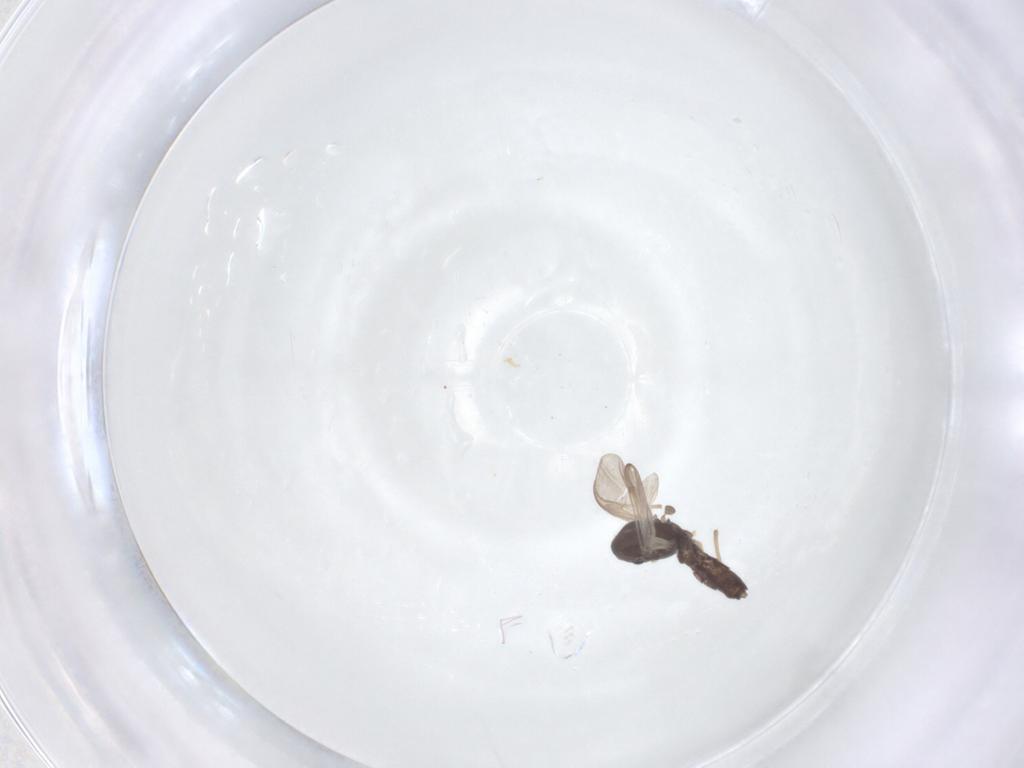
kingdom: Animalia
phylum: Arthropoda
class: Insecta
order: Diptera
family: Chironomidae
